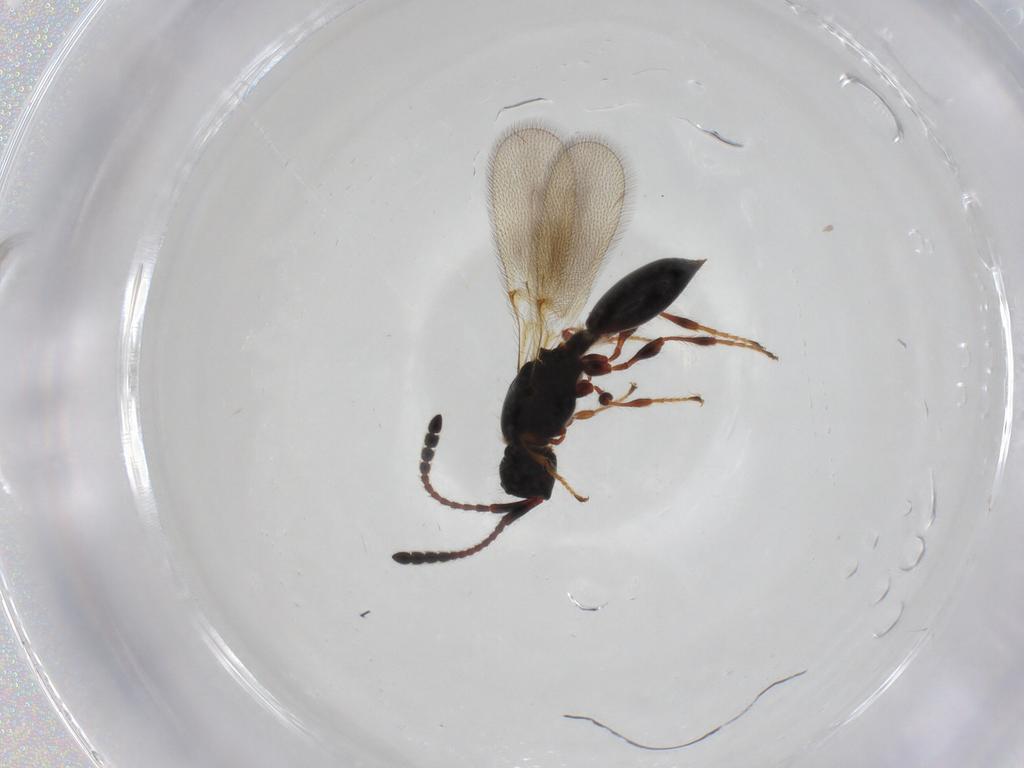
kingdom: Animalia
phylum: Arthropoda
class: Insecta
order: Hymenoptera
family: Diapriidae
